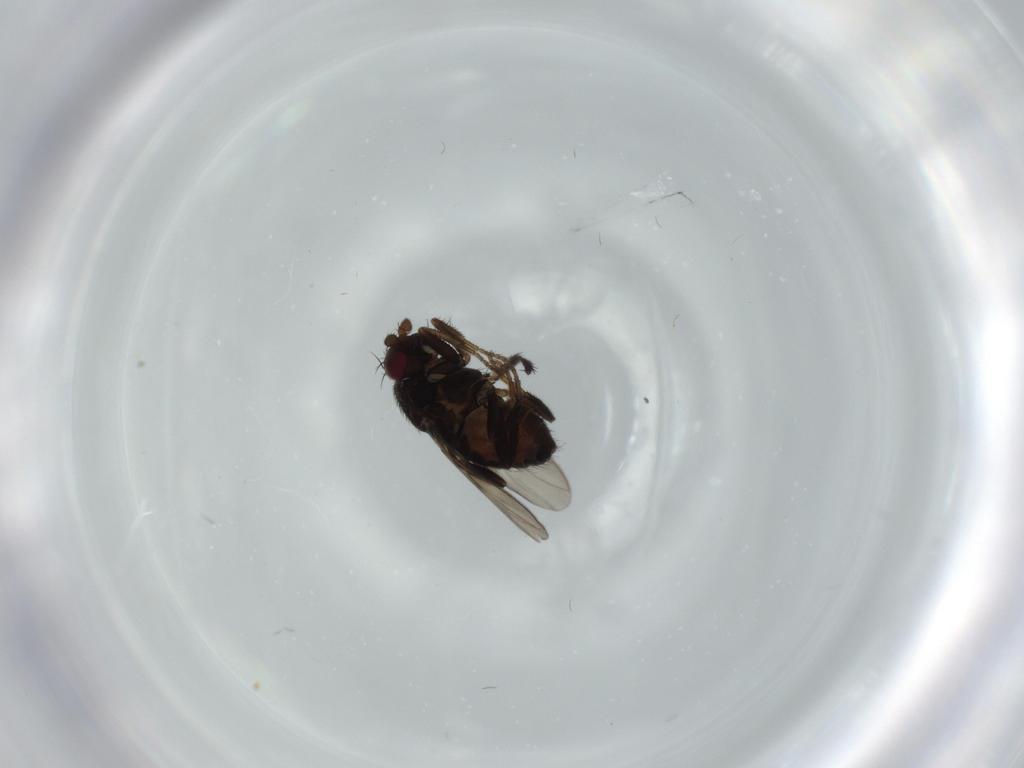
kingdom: Animalia
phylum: Arthropoda
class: Insecta
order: Diptera
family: Sphaeroceridae
